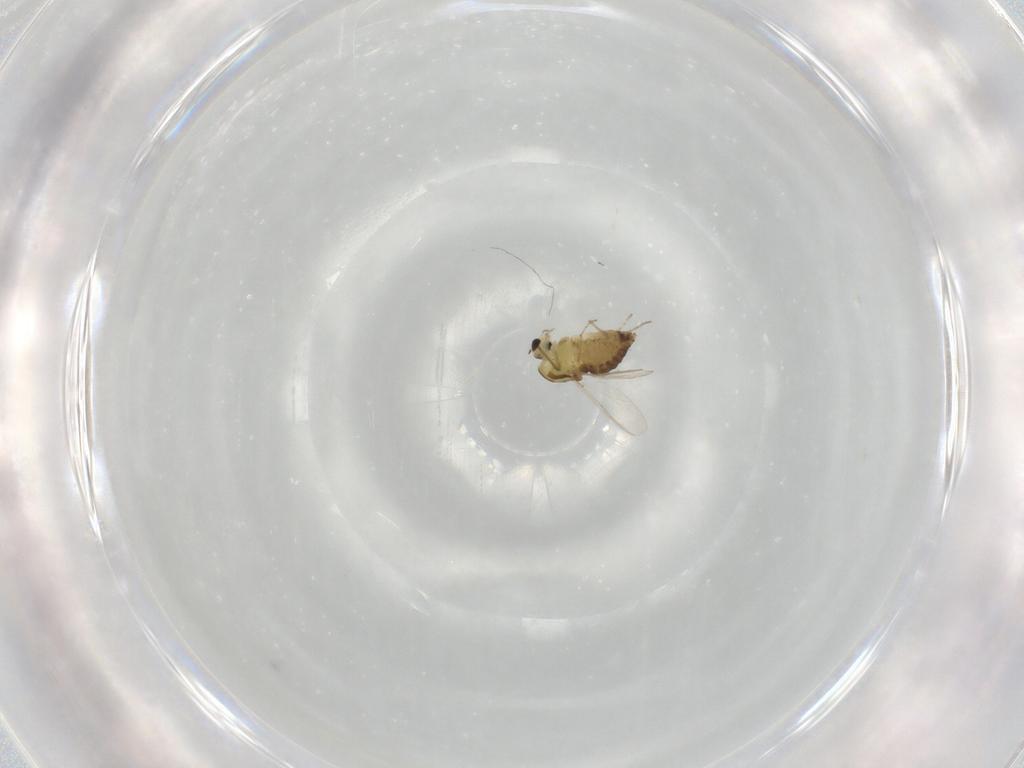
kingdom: Animalia
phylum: Arthropoda
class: Insecta
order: Diptera
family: Chironomidae
